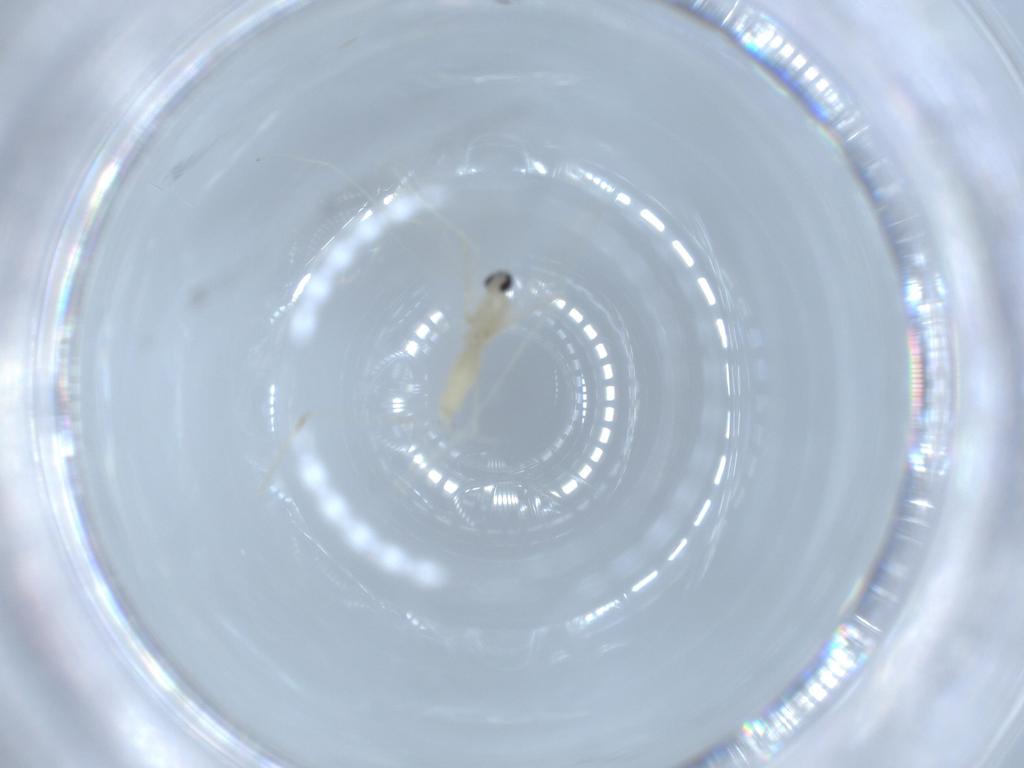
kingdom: Animalia
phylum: Arthropoda
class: Insecta
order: Diptera
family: Cecidomyiidae
